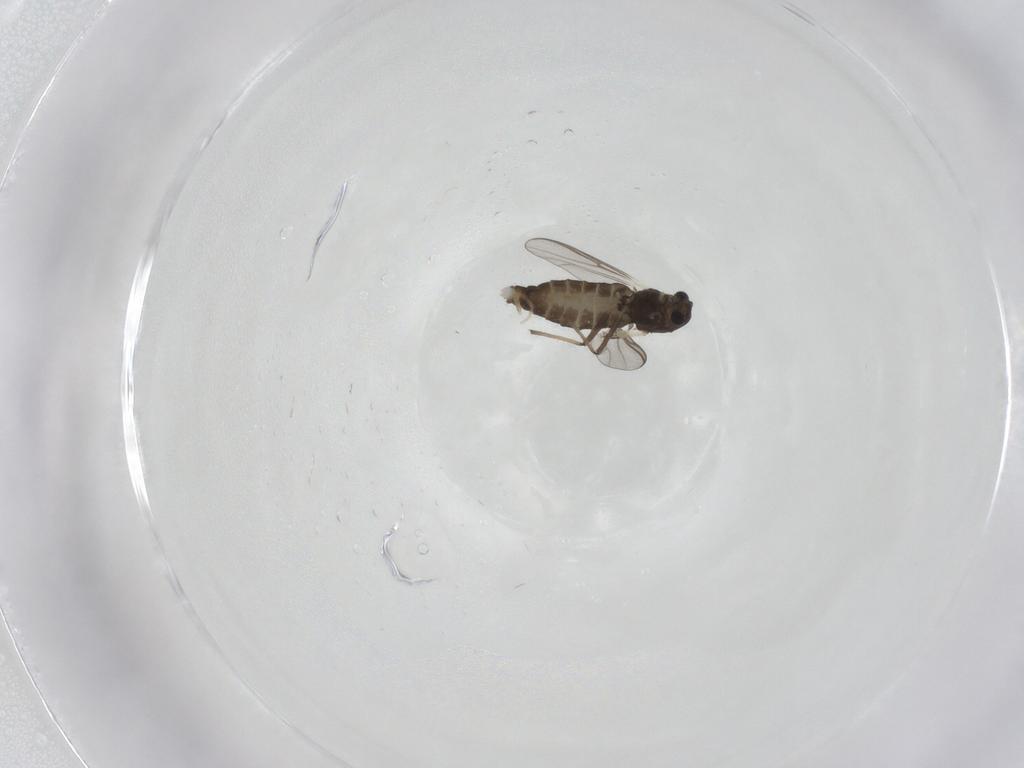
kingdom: Animalia
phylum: Arthropoda
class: Insecta
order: Diptera
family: Chironomidae
